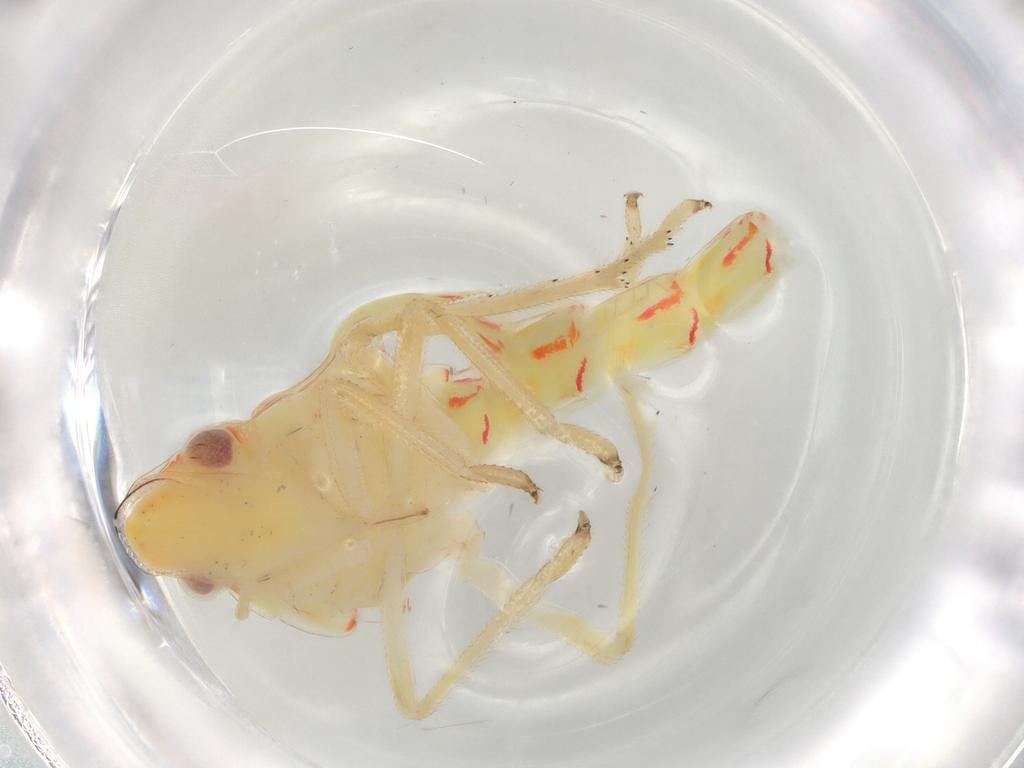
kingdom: Animalia
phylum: Arthropoda
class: Insecta
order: Hemiptera
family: Tropiduchidae
